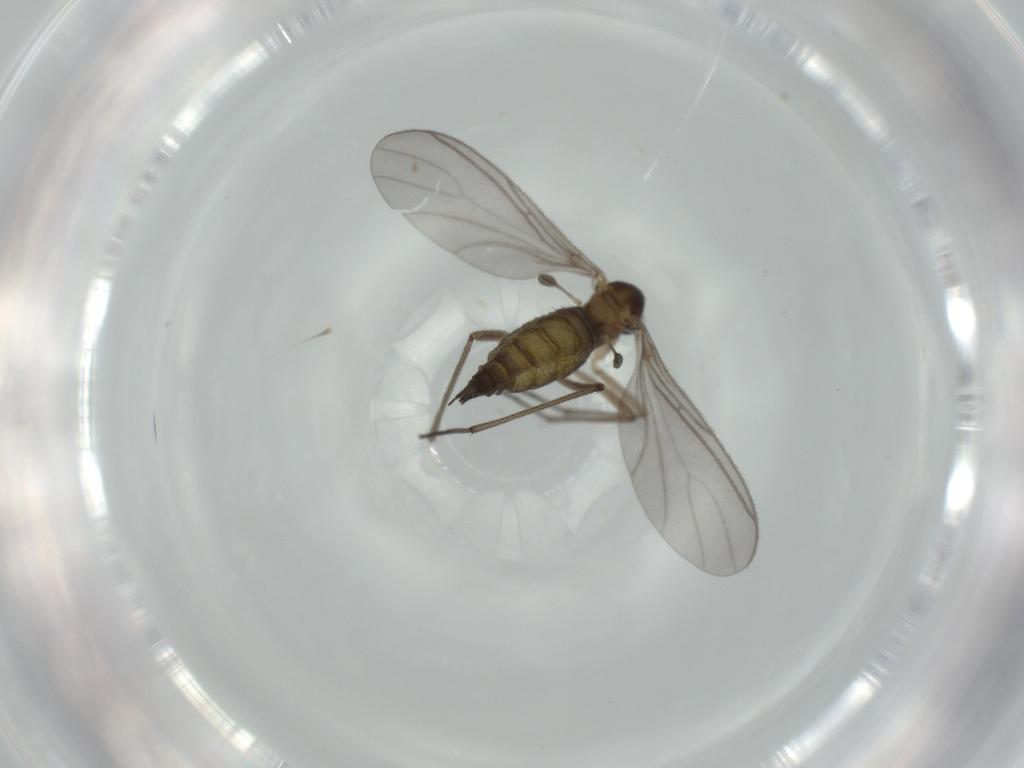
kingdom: Animalia
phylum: Arthropoda
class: Insecta
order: Diptera
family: Sciaridae
